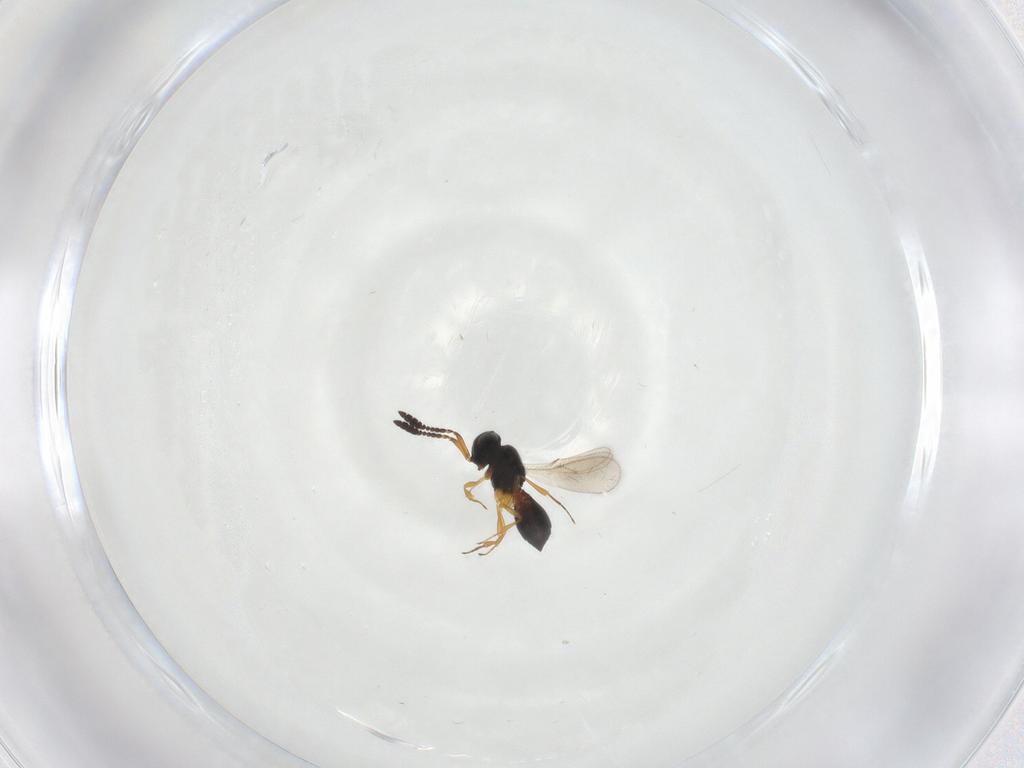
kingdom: Animalia
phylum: Arthropoda
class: Insecta
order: Hymenoptera
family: Scelionidae
